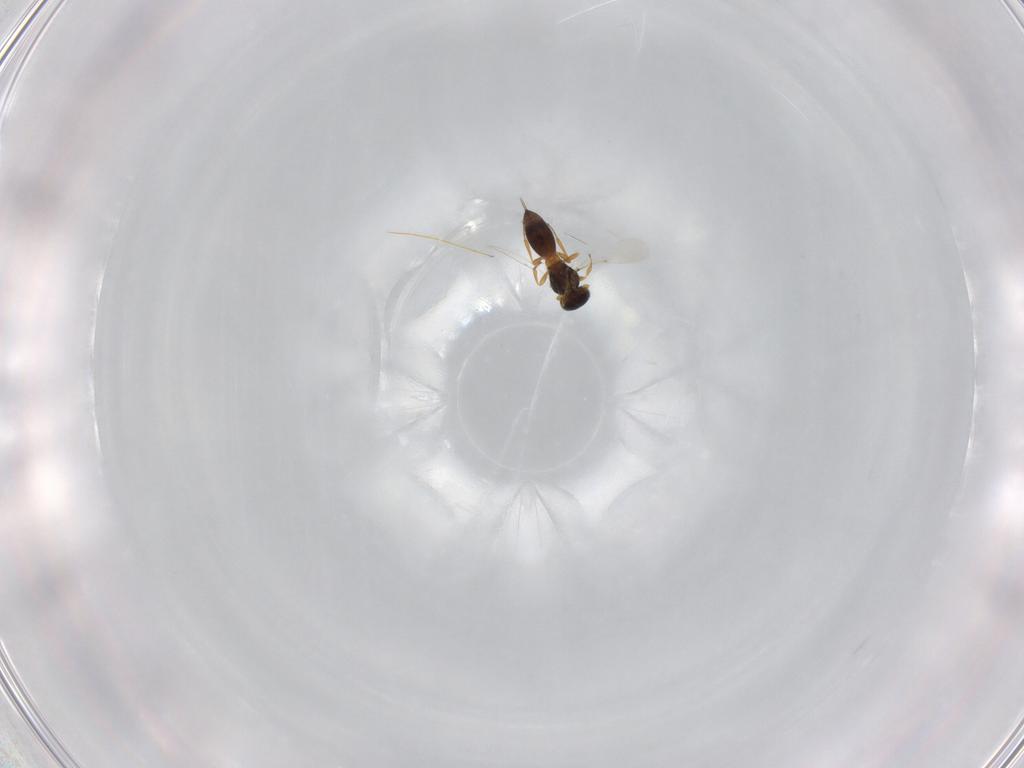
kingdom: Animalia
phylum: Arthropoda
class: Insecta
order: Hymenoptera
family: Platygastridae
